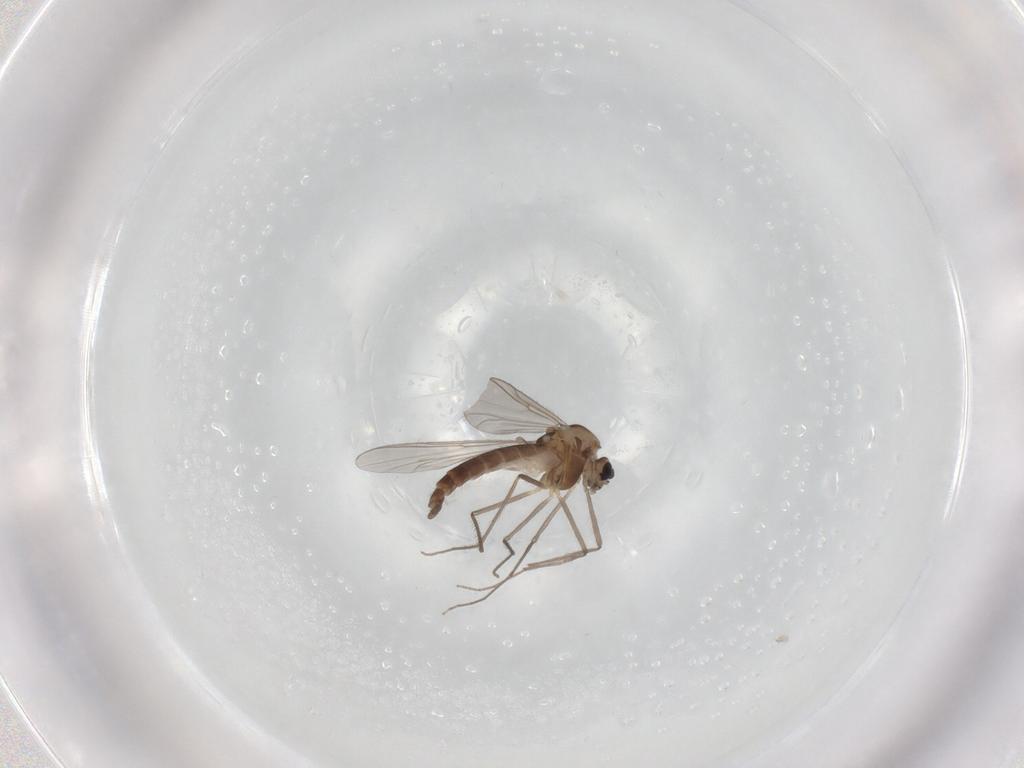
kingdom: Animalia
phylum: Arthropoda
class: Insecta
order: Diptera
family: Chironomidae
